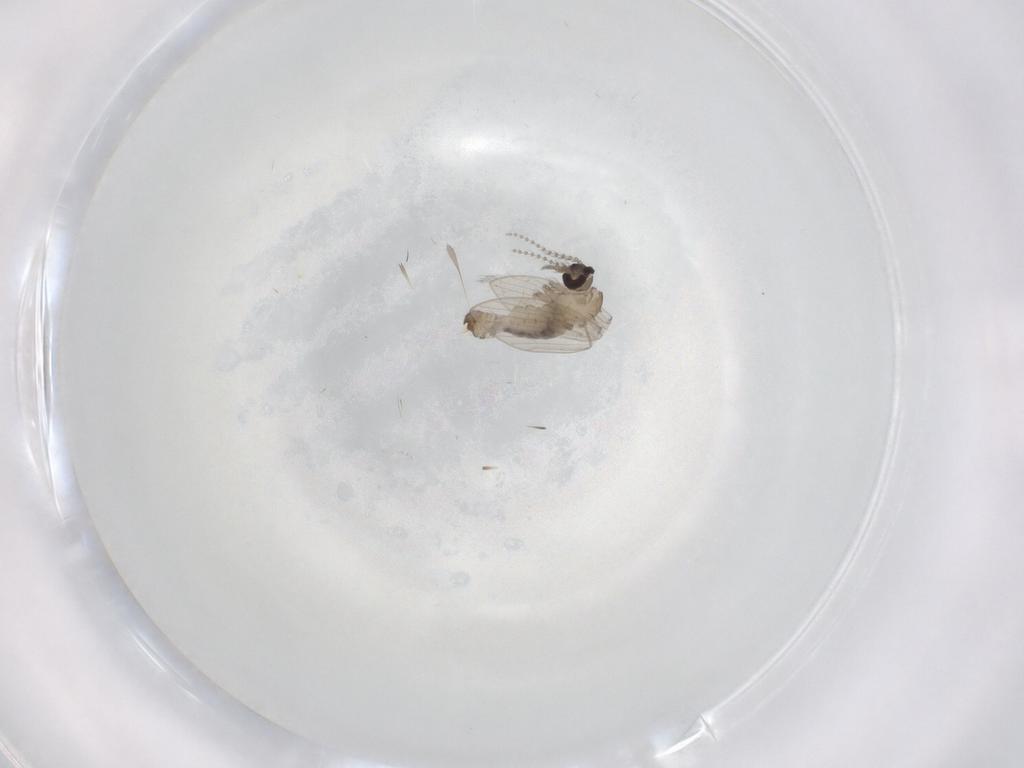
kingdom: Animalia
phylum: Arthropoda
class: Insecta
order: Diptera
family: Psychodidae
